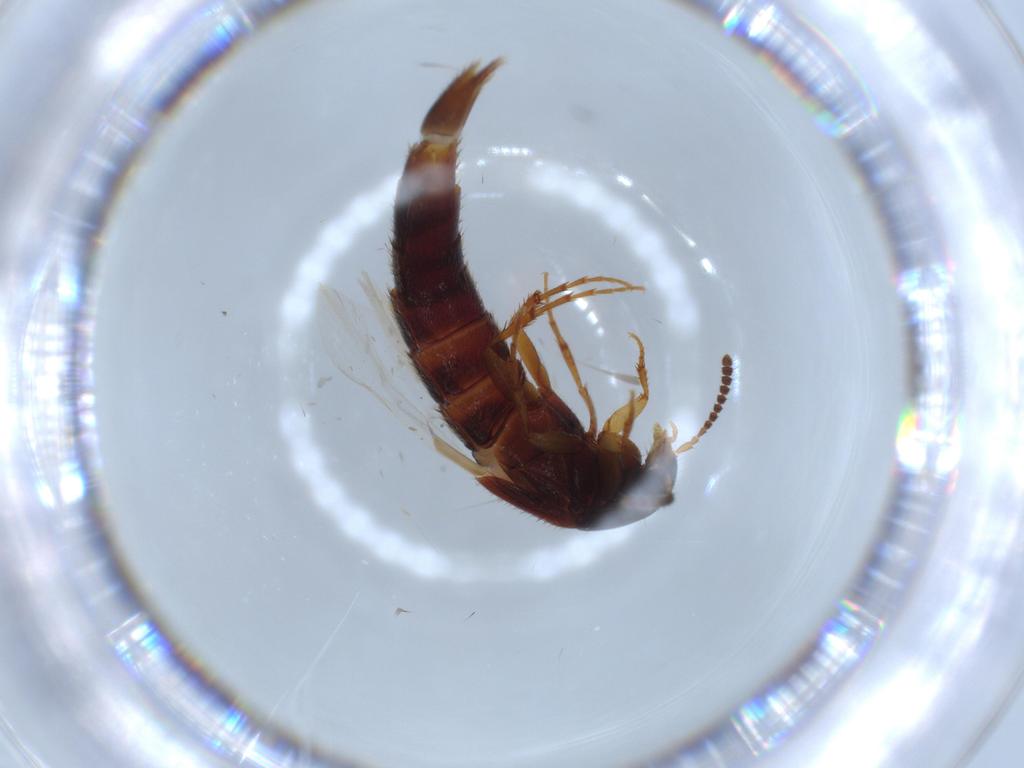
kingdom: Animalia
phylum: Arthropoda
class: Insecta
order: Coleoptera
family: Staphylinidae
